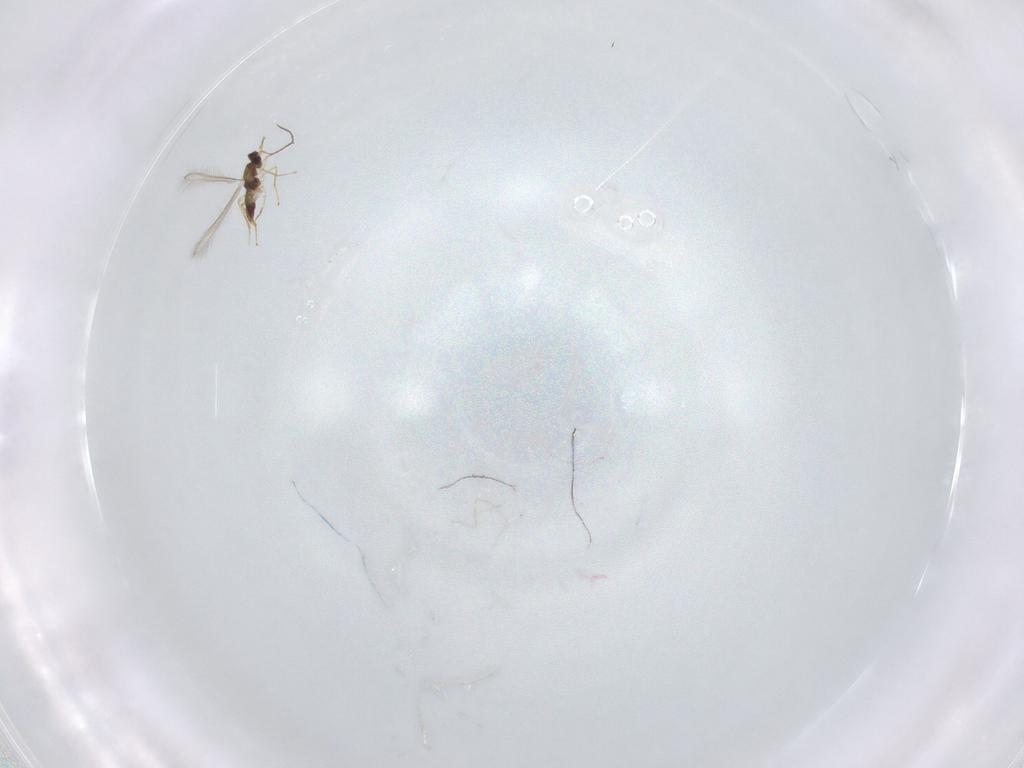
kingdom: Animalia
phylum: Arthropoda
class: Insecta
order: Hymenoptera
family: Mymaridae
